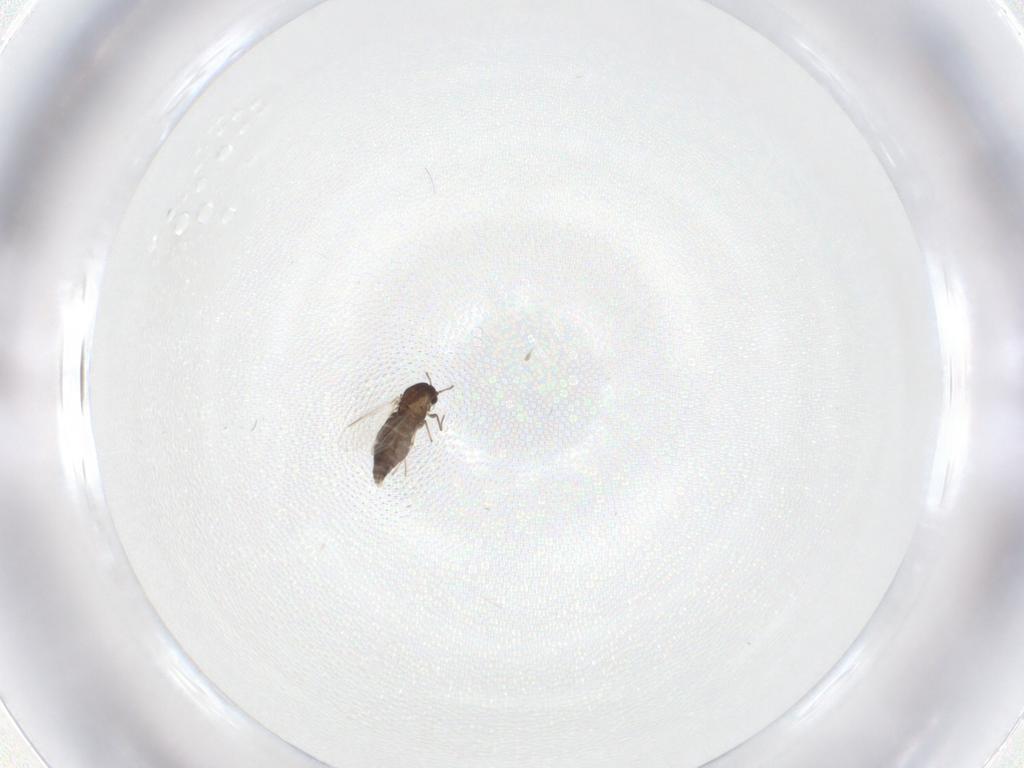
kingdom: Animalia
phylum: Arthropoda
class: Insecta
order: Diptera
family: Chironomidae
